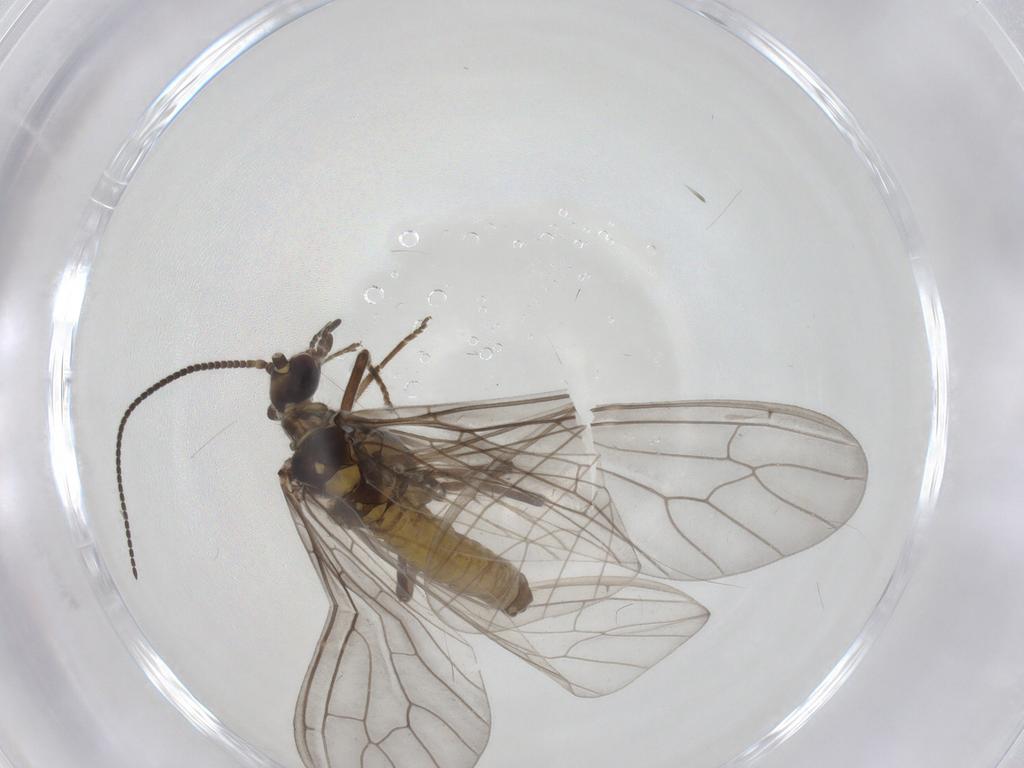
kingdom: Animalia
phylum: Arthropoda
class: Insecta
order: Neuroptera
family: Coniopterygidae
